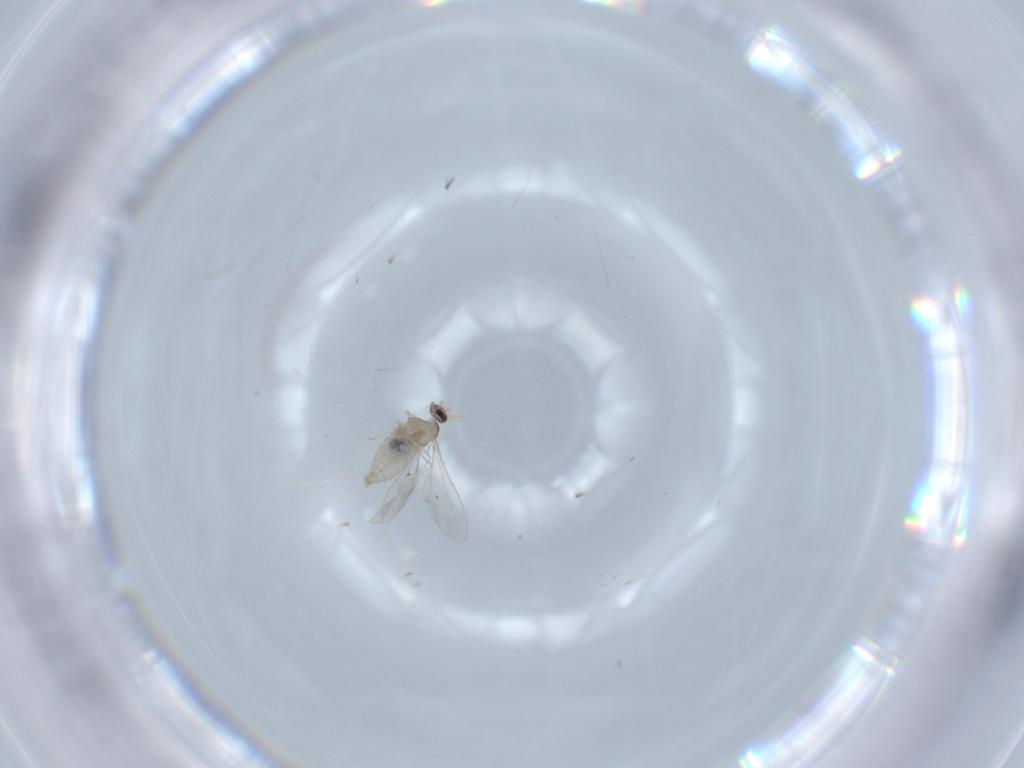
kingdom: Animalia
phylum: Arthropoda
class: Insecta
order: Diptera
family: Cecidomyiidae
